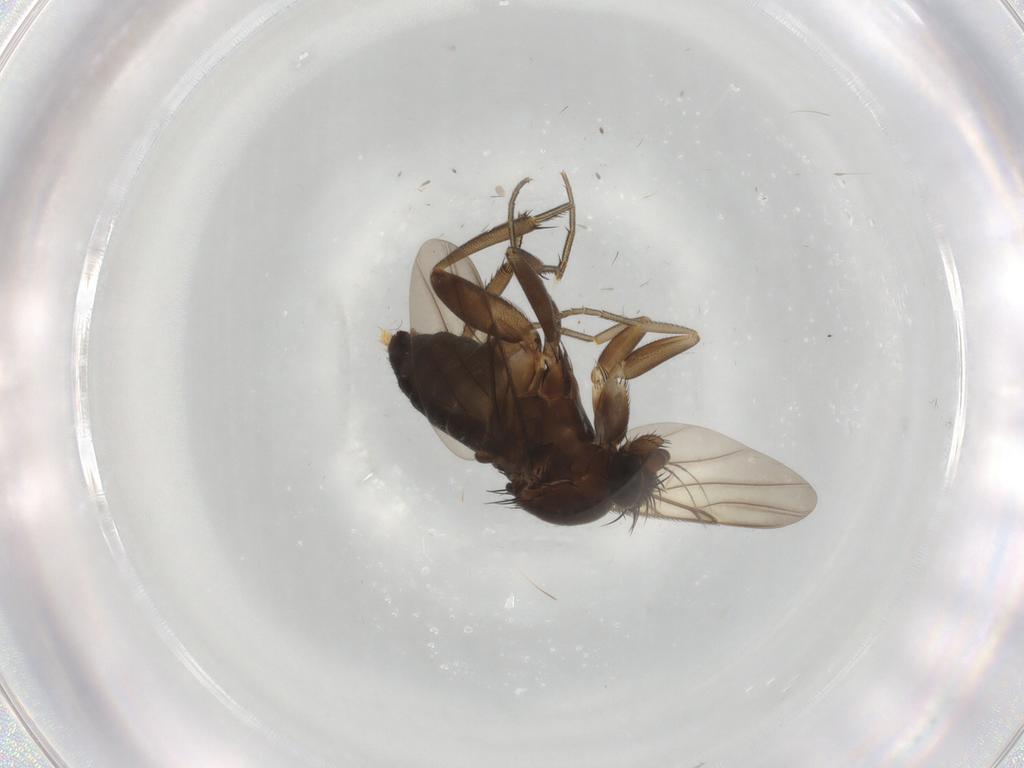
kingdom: Animalia
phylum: Arthropoda
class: Insecta
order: Diptera
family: Phoridae
